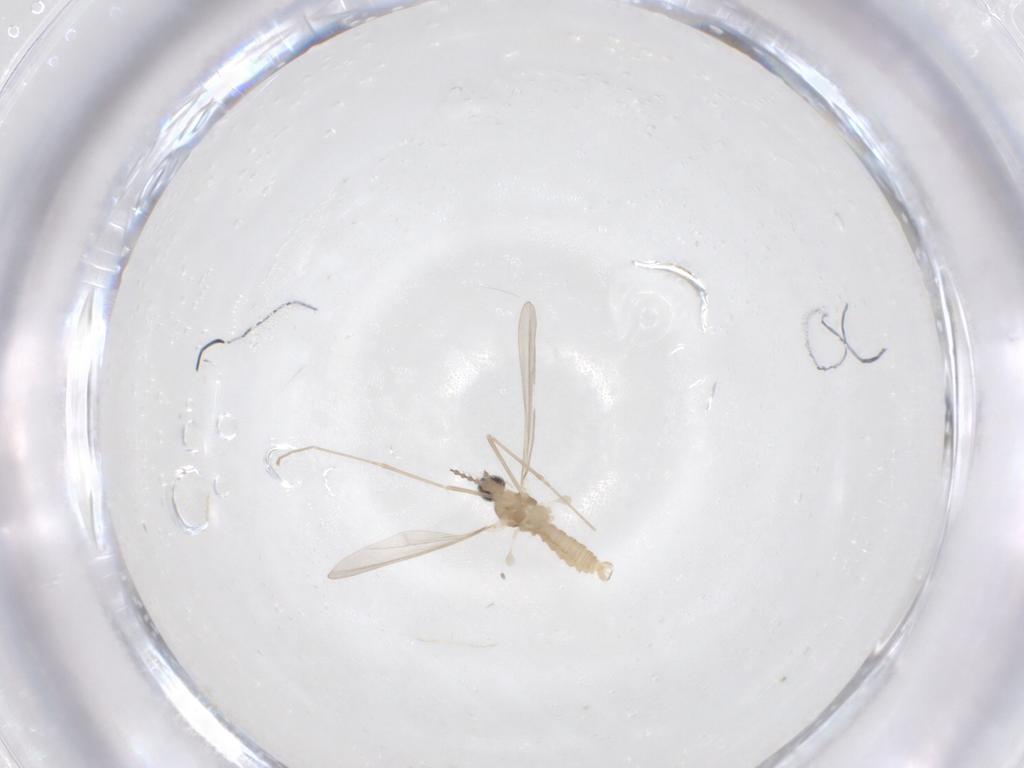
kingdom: Animalia
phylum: Arthropoda
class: Insecta
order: Diptera
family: Cecidomyiidae
